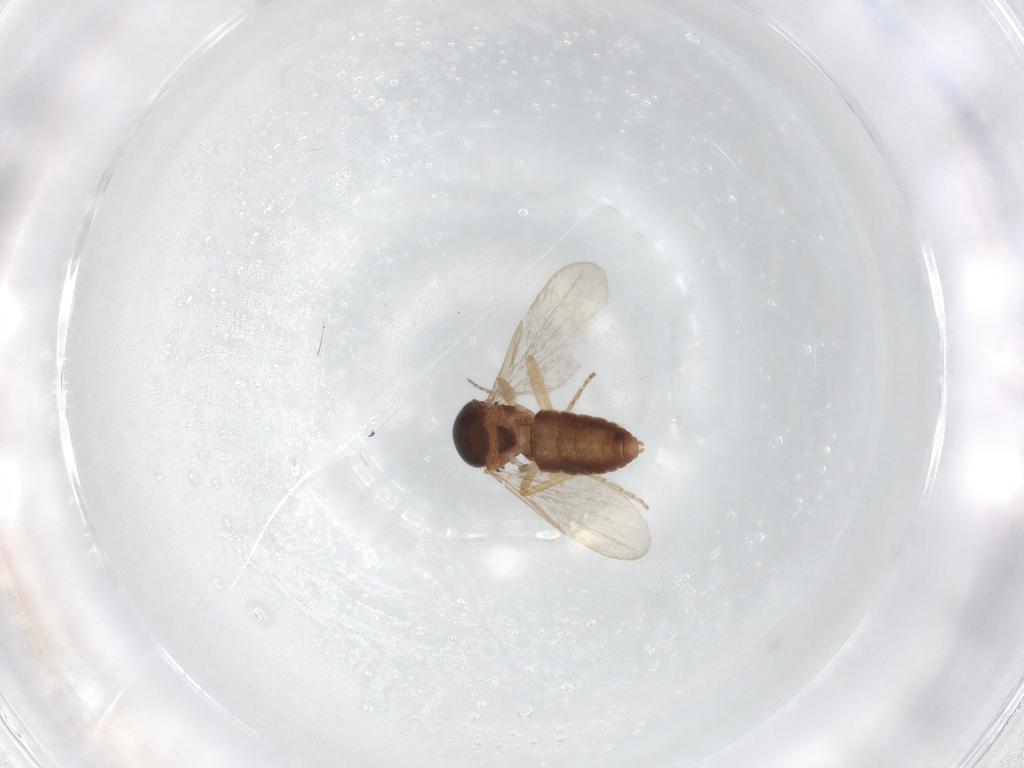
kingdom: Animalia
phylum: Arthropoda
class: Insecta
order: Diptera
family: Ceratopogonidae
